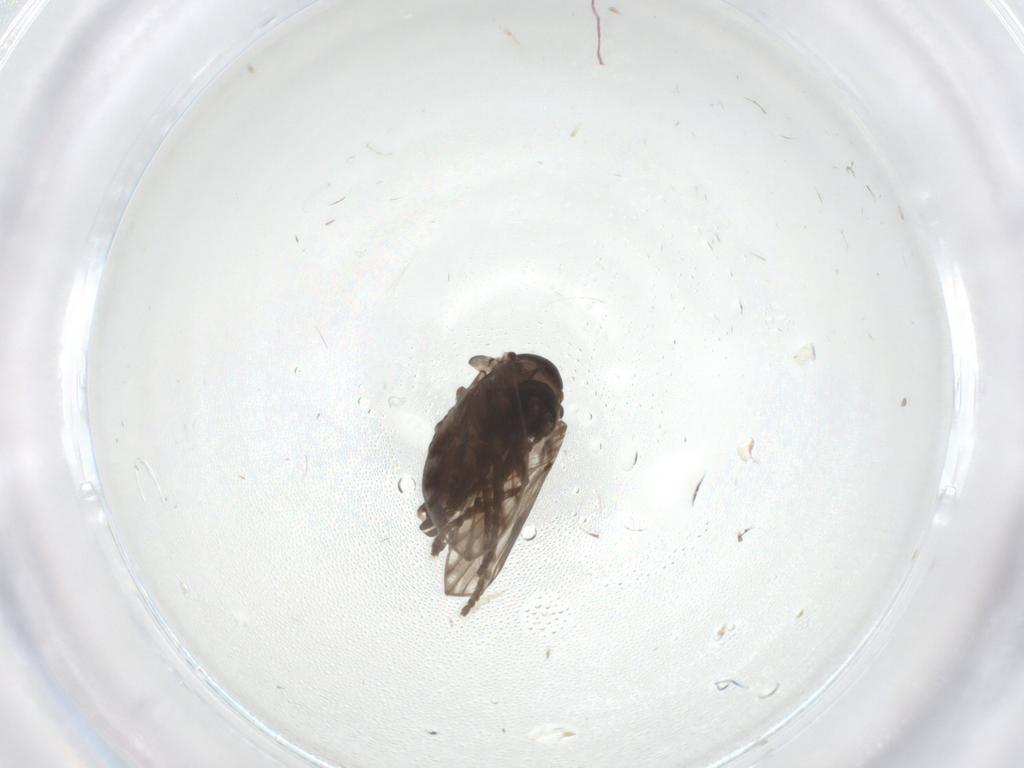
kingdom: Animalia
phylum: Arthropoda
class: Insecta
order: Diptera
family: Psychodidae
